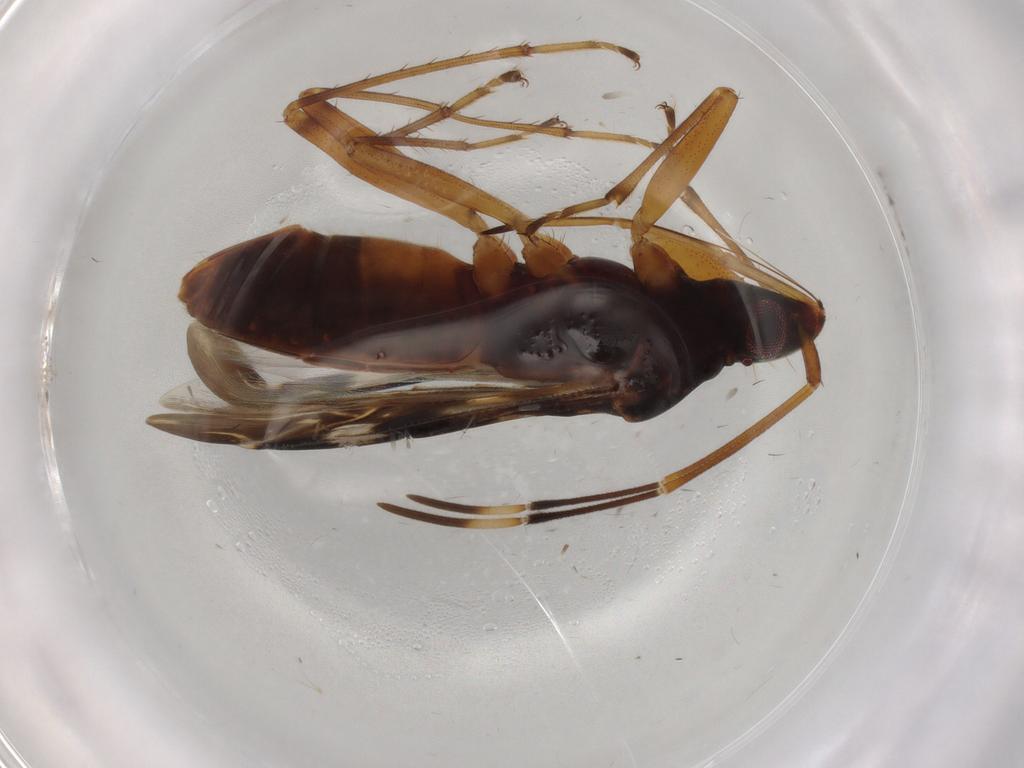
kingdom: Animalia
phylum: Arthropoda
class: Insecta
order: Hemiptera
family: Rhyparochromidae
